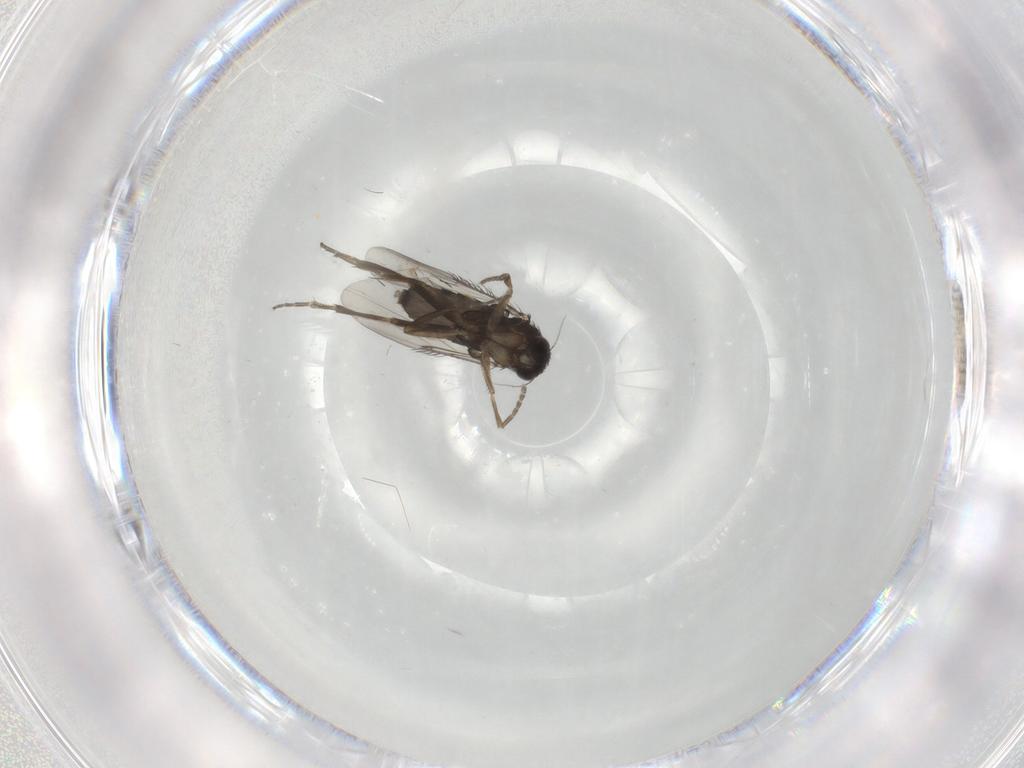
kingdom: Animalia
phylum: Arthropoda
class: Insecta
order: Diptera
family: Phoridae
